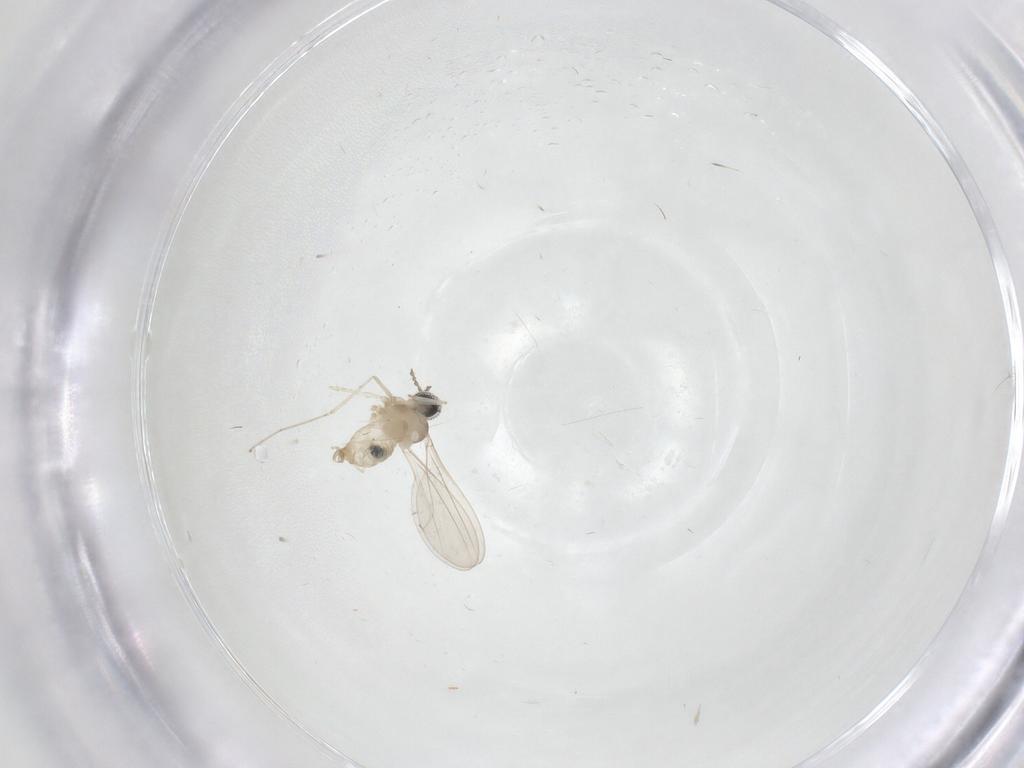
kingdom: Animalia
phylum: Arthropoda
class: Insecta
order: Diptera
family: Cecidomyiidae
